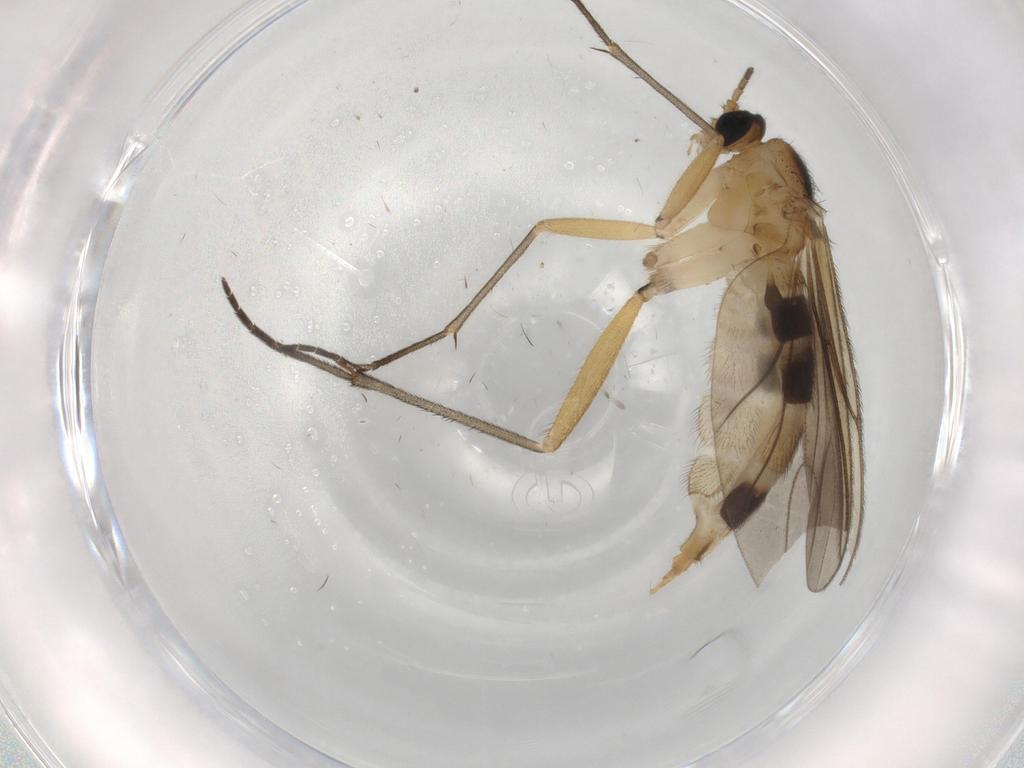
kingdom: Animalia
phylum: Arthropoda
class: Insecta
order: Diptera
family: Sciaridae
